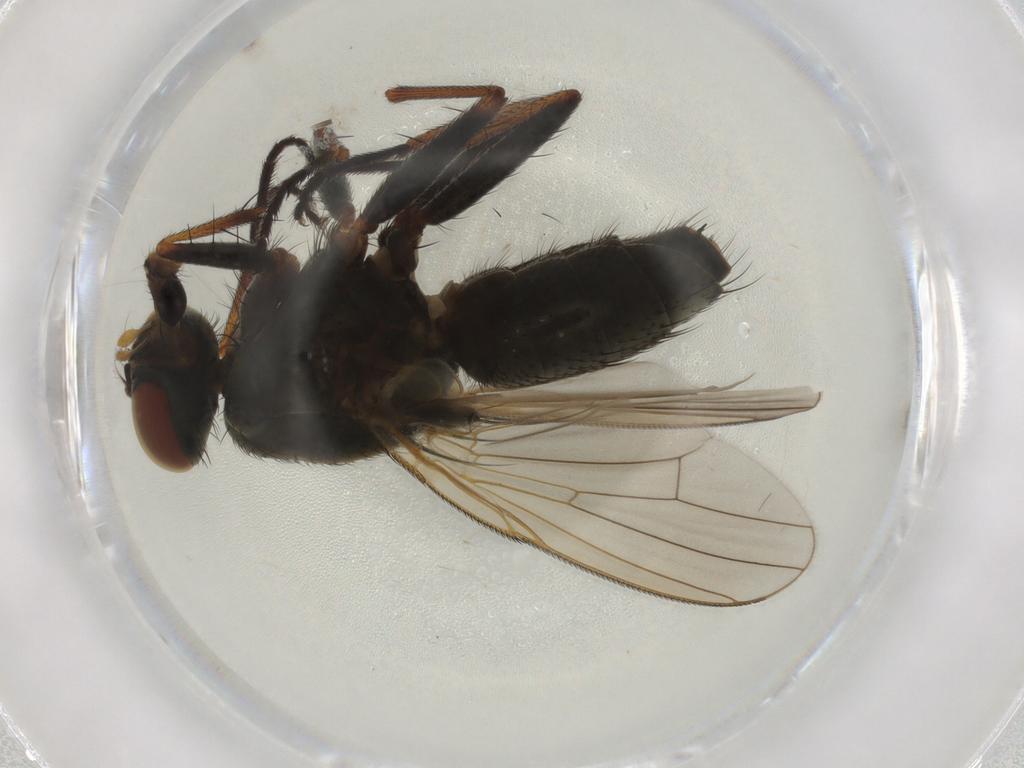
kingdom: Animalia
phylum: Arthropoda
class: Insecta
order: Diptera
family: Muscidae
